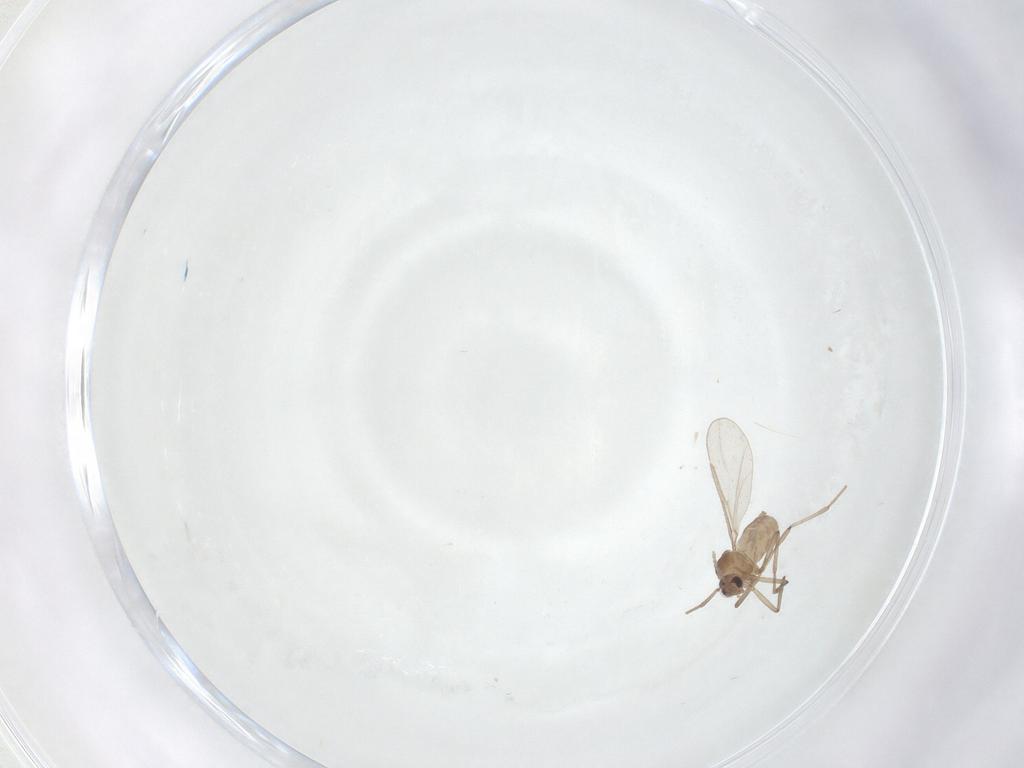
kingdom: Animalia
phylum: Arthropoda
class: Insecta
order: Diptera
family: Cecidomyiidae
